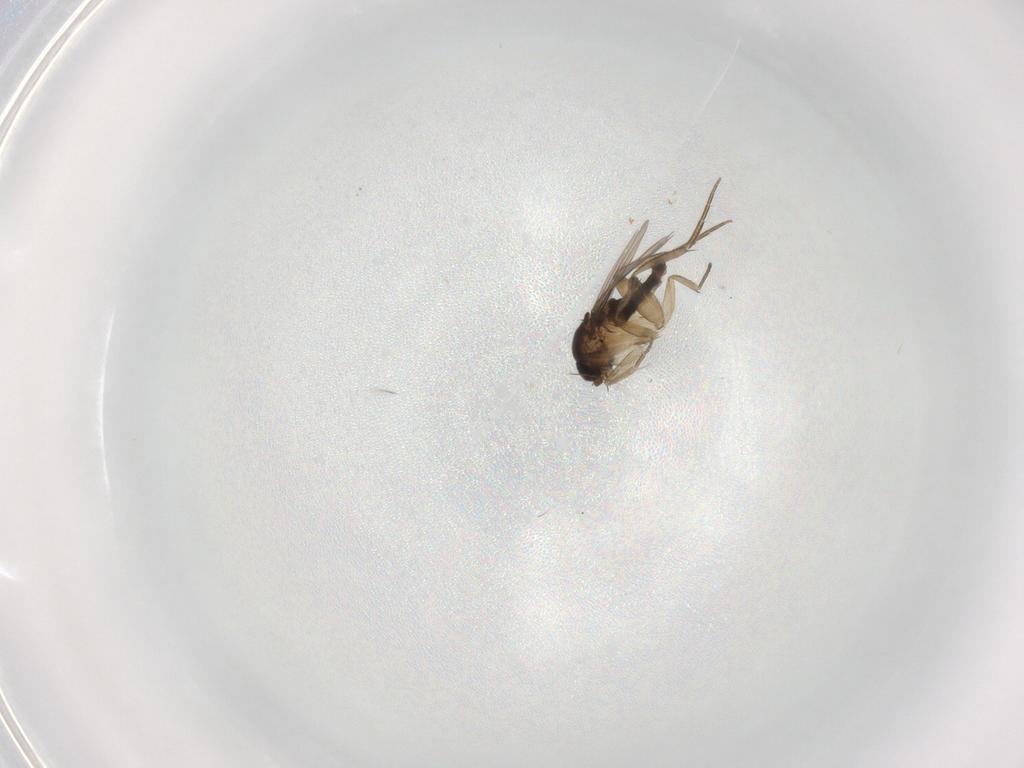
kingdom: Animalia
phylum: Arthropoda
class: Insecta
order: Diptera
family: Phoridae
